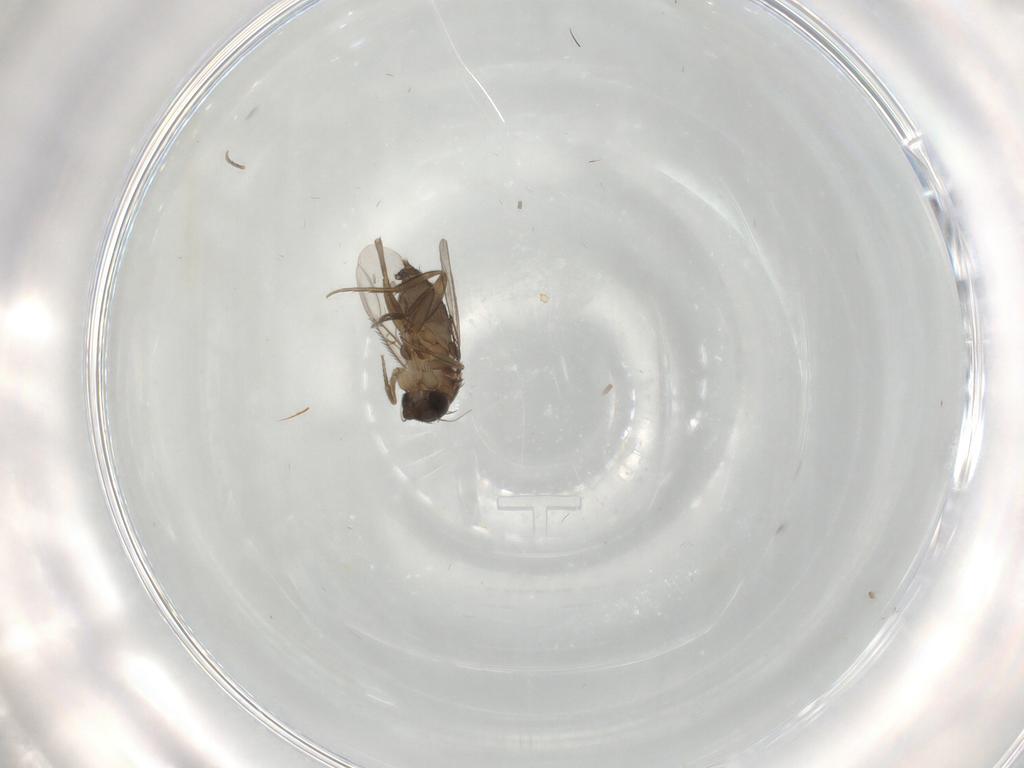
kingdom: Animalia
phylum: Arthropoda
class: Insecta
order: Diptera
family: Phoridae
